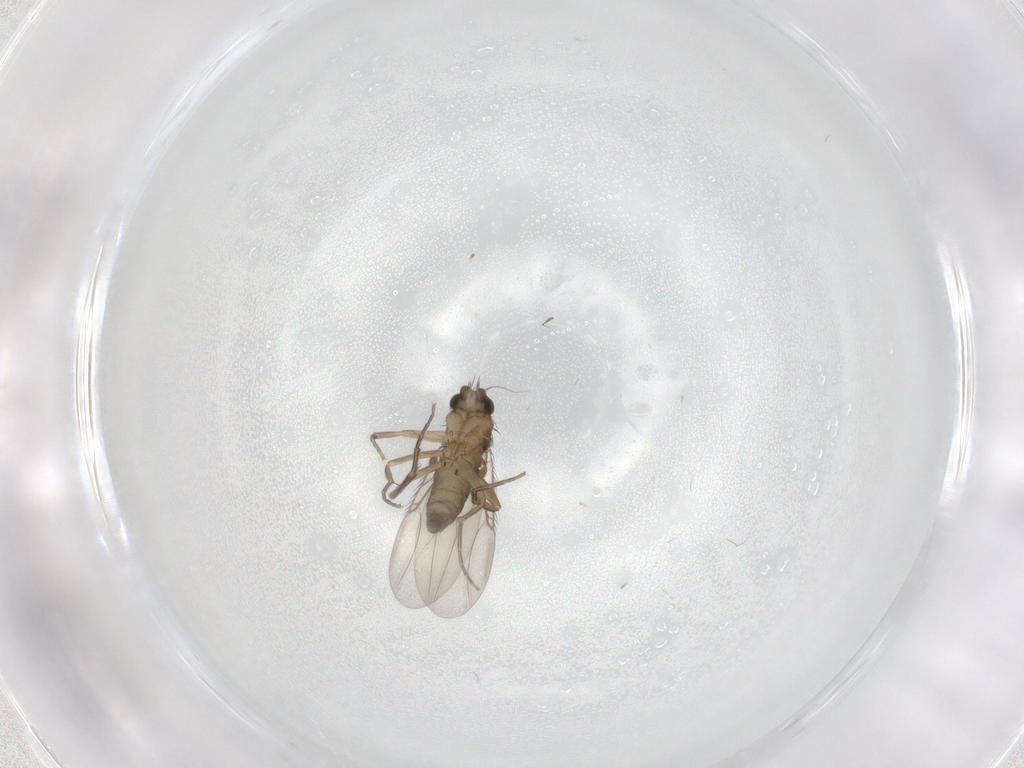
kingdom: Animalia
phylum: Arthropoda
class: Insecta
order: Diptera
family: Phoridae
